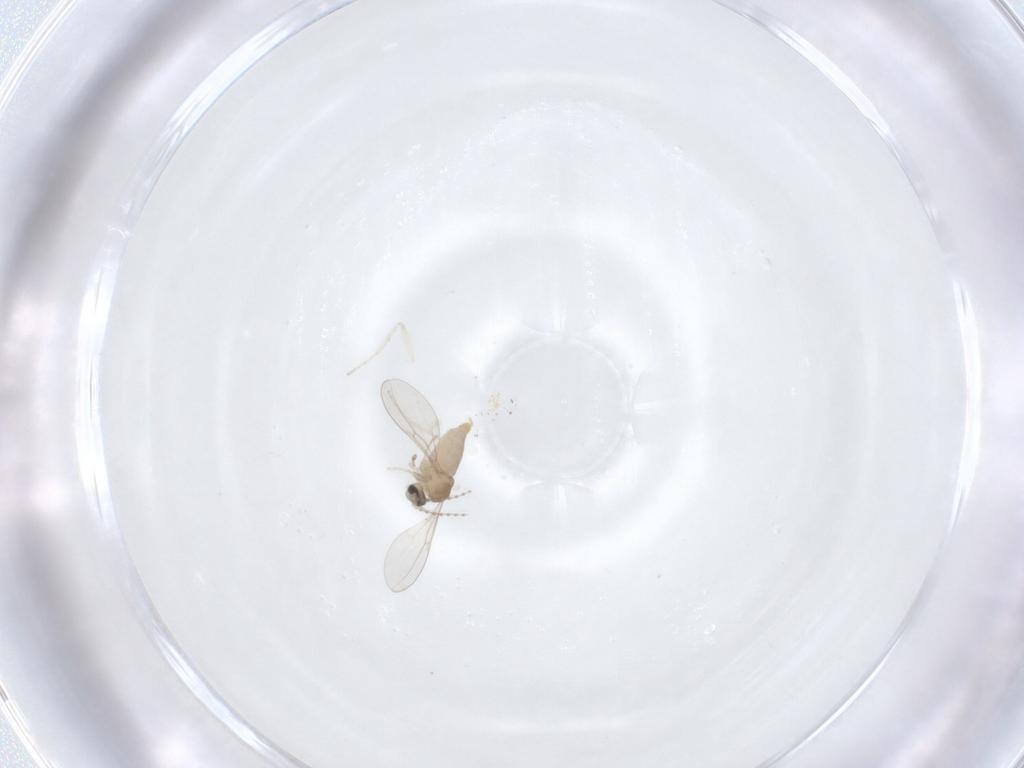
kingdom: Animalia
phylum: Arthropoda
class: Insecta
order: Diptera
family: Cecidomyiidae
